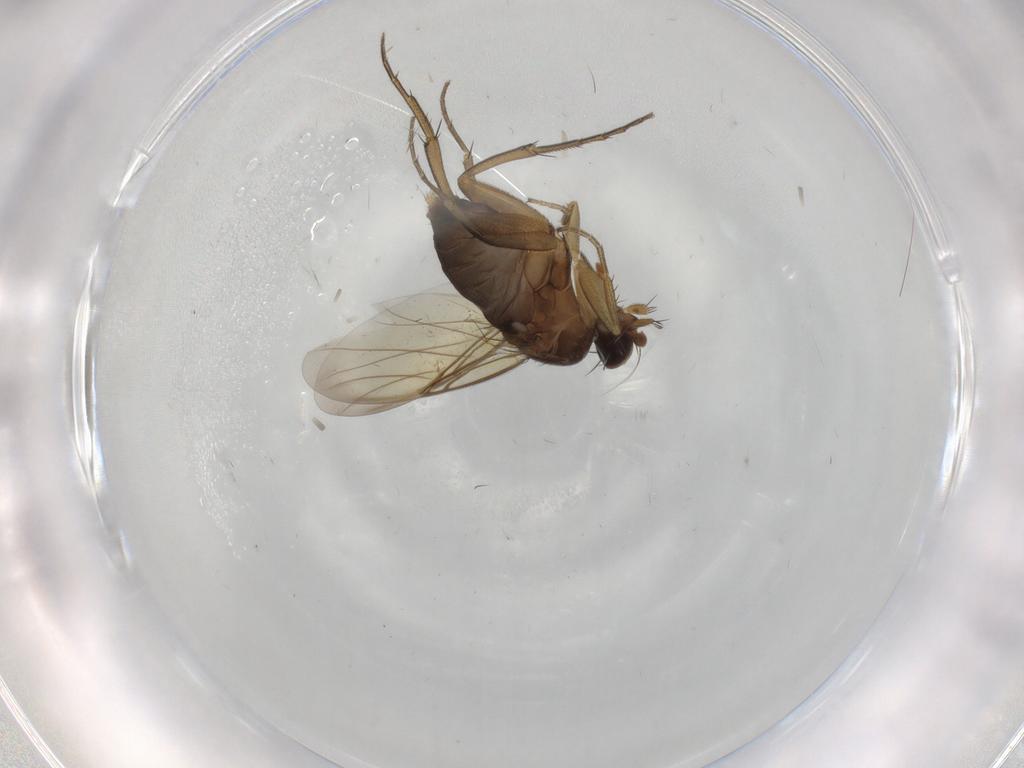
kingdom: Animalia
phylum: Arthropoda
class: Insecta
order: Diptera
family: Phoridae
